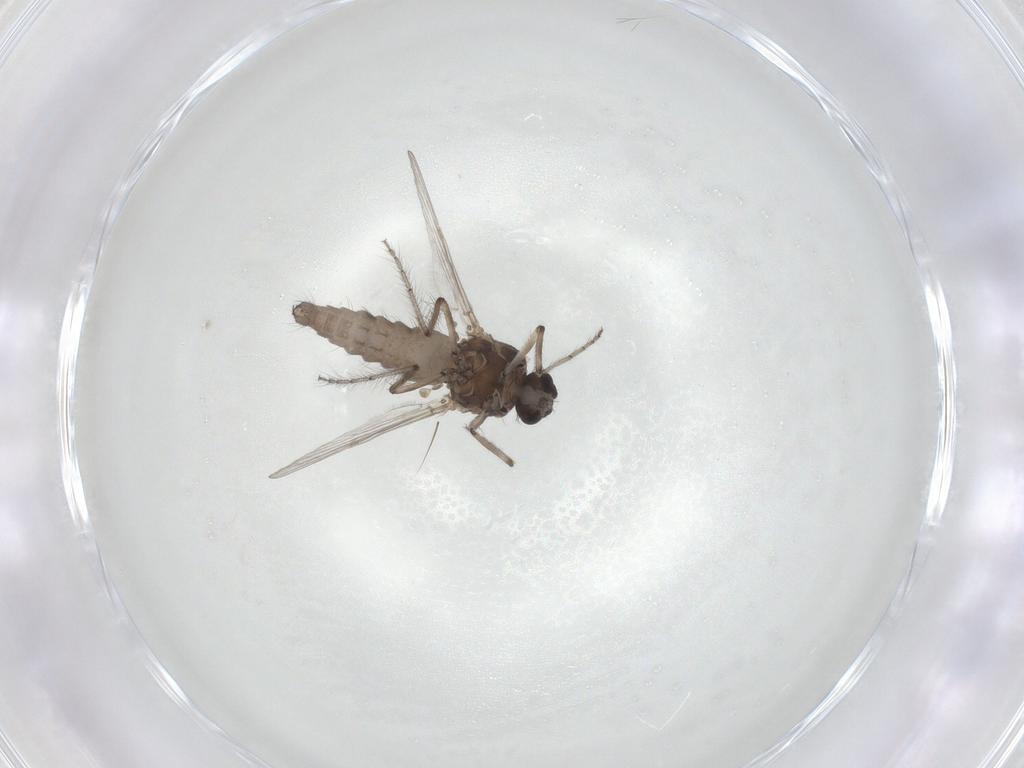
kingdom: Animalia
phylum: Arthropoda
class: Insecta
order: Diptera
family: Ceratopogonidae
